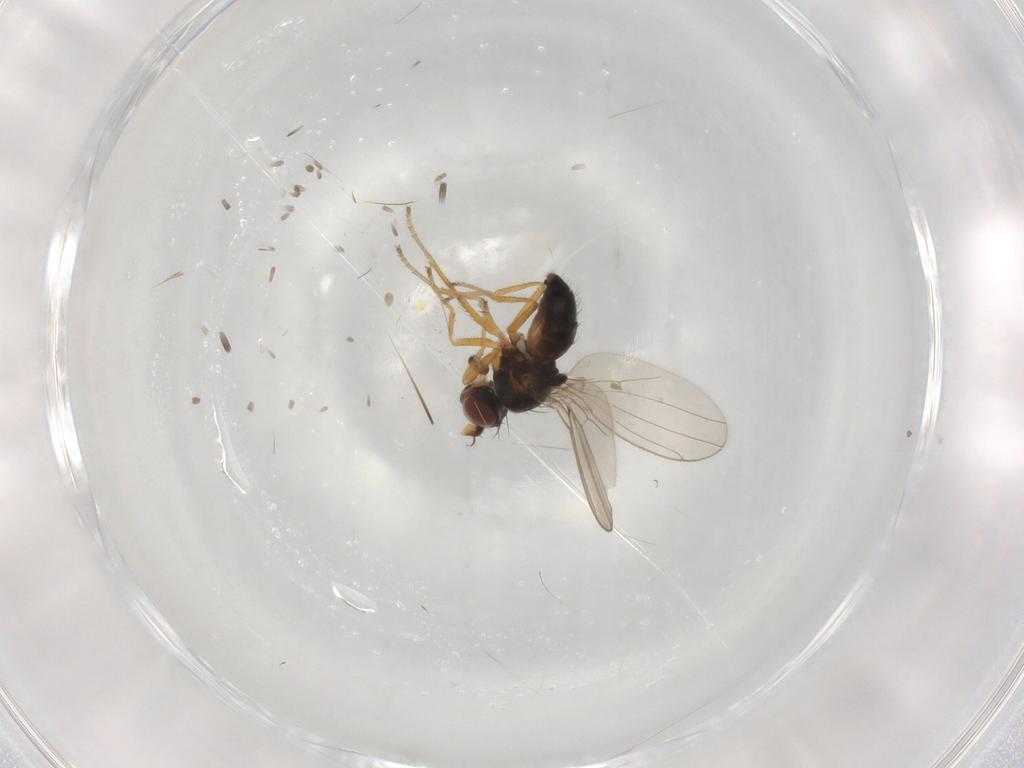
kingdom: Animalia
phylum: Arthropoda
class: Insecta
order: Diptera
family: Ephydridae
